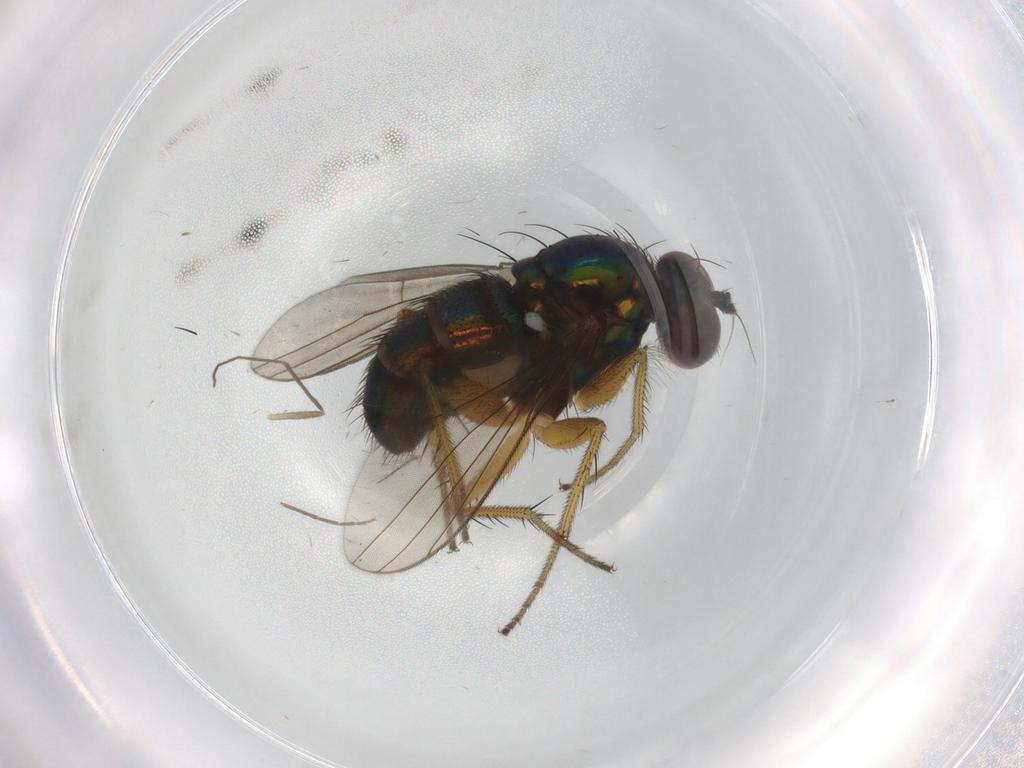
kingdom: Animalia
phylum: Arthropoda
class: Insecta
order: Diptera
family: Dolichopodidae
